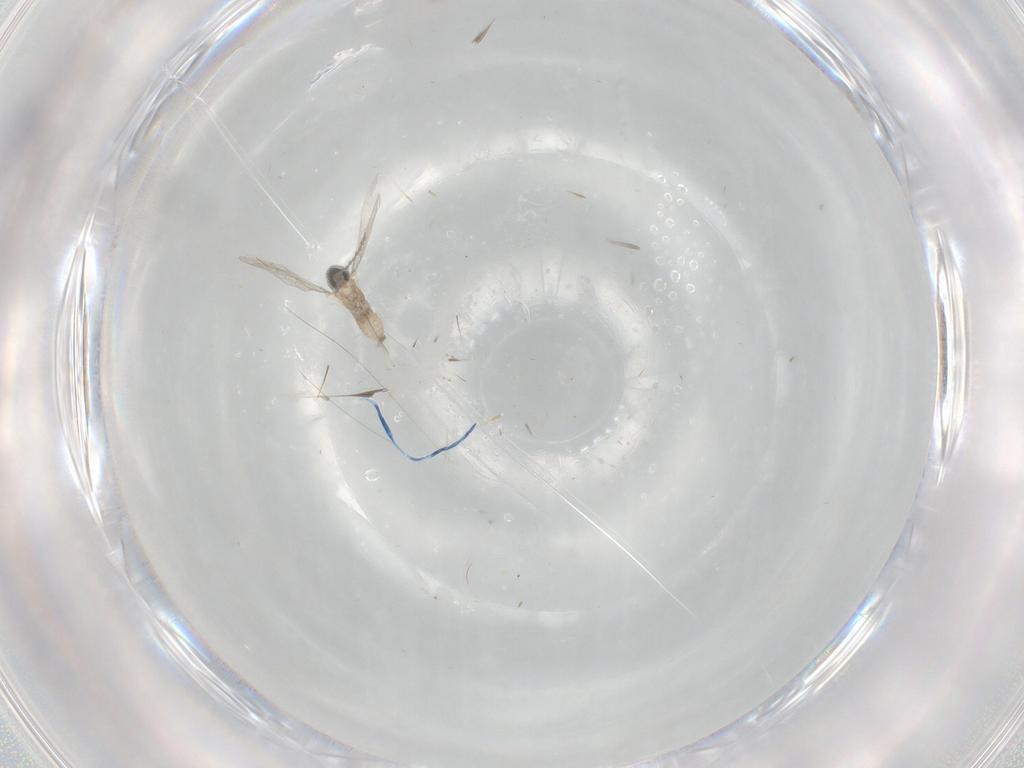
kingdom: Animalia
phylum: Arthropoda
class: Insecta
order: Diptera
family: Cecidomyiidae
